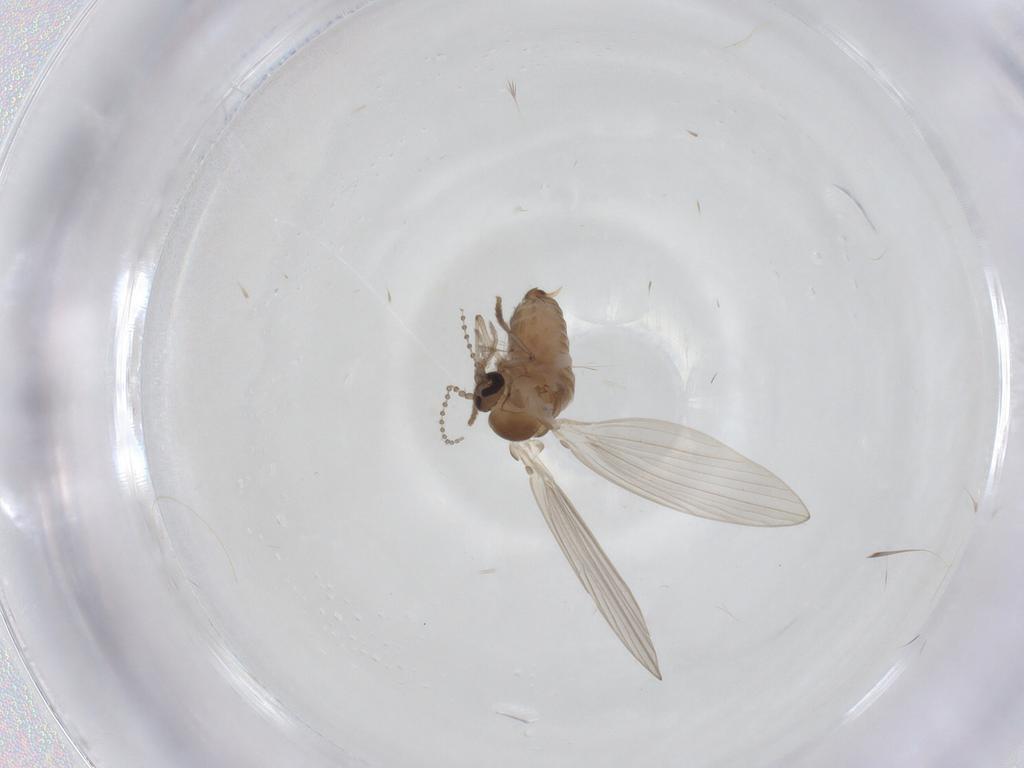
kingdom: Animalia
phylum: Arthropoda
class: Insecta
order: Diptera
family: Psychodidae
